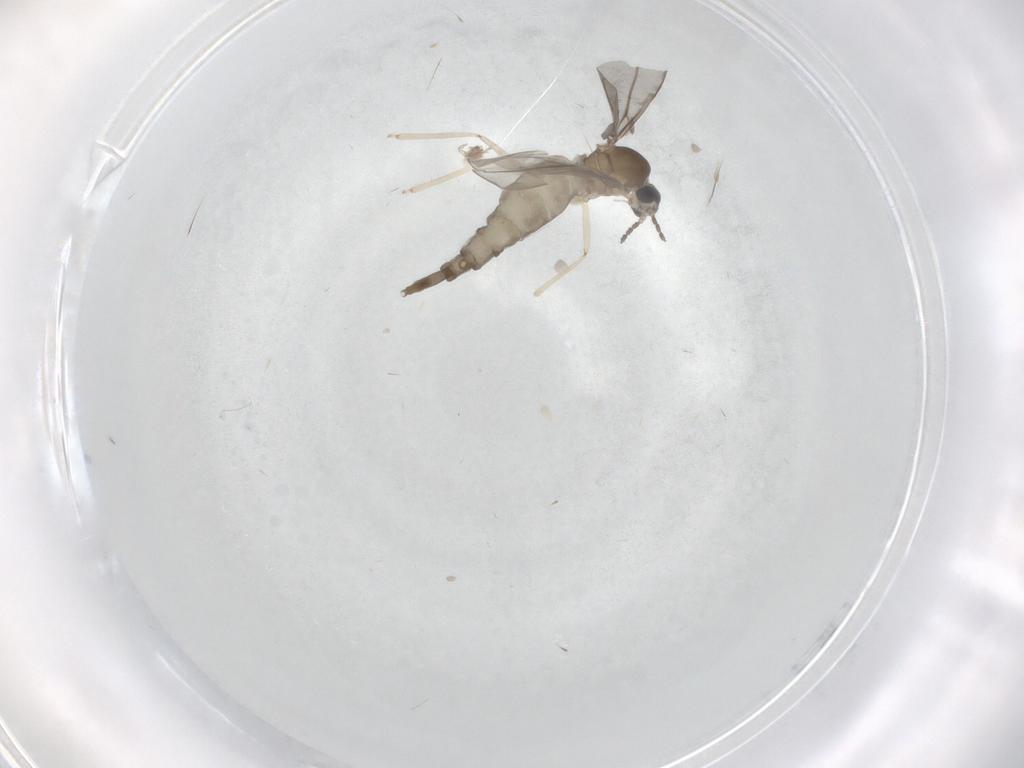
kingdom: Animalia
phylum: Arthropoda
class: Insecta
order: Diptera
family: Cecidomyiidae
